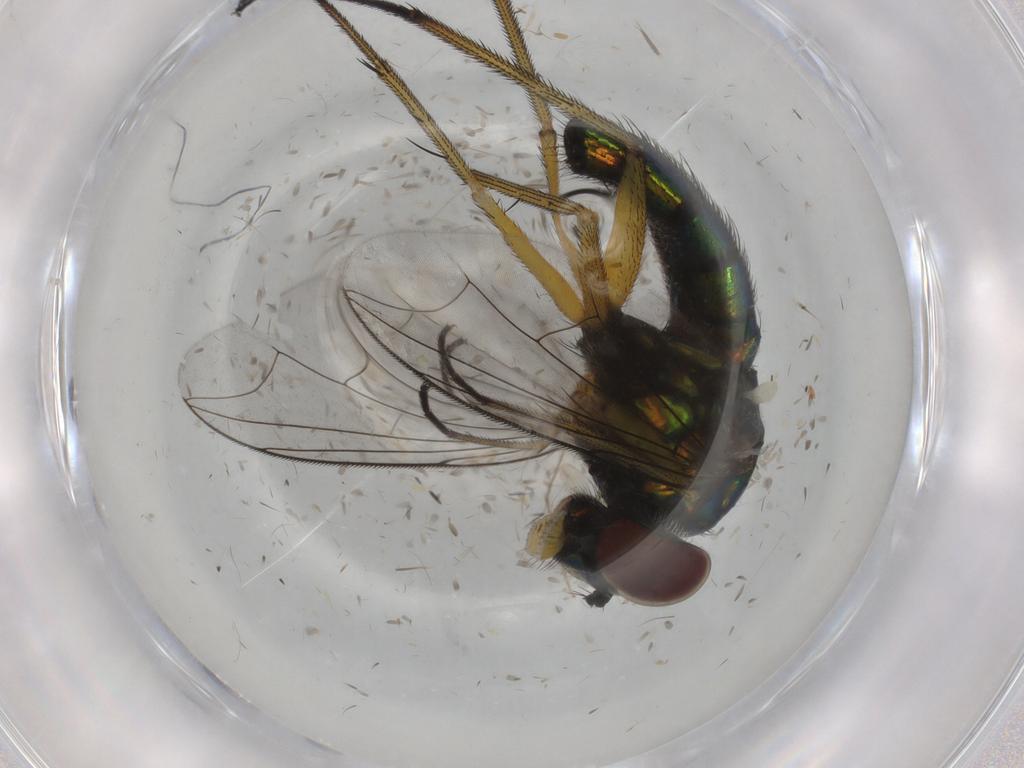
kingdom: Animalia
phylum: Arthropoda
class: Insecta
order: Diptera
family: Dolichopodidae
